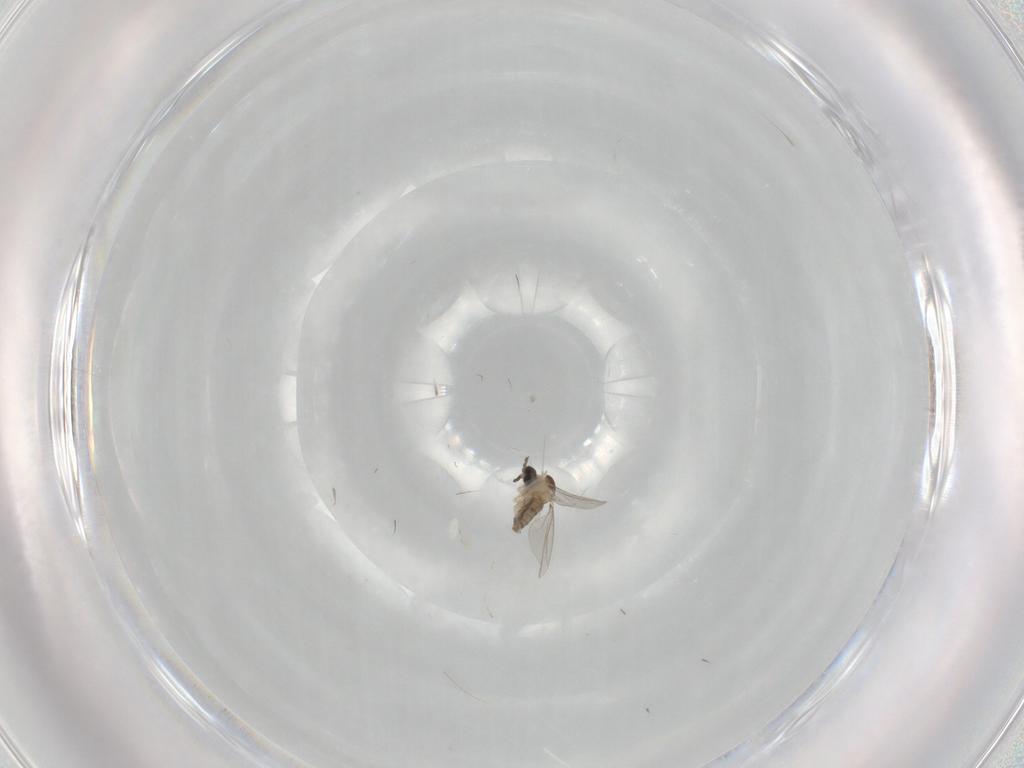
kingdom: Animalia
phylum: Arthropoda
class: Insecta
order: Diptera
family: Cecidomyiidae
